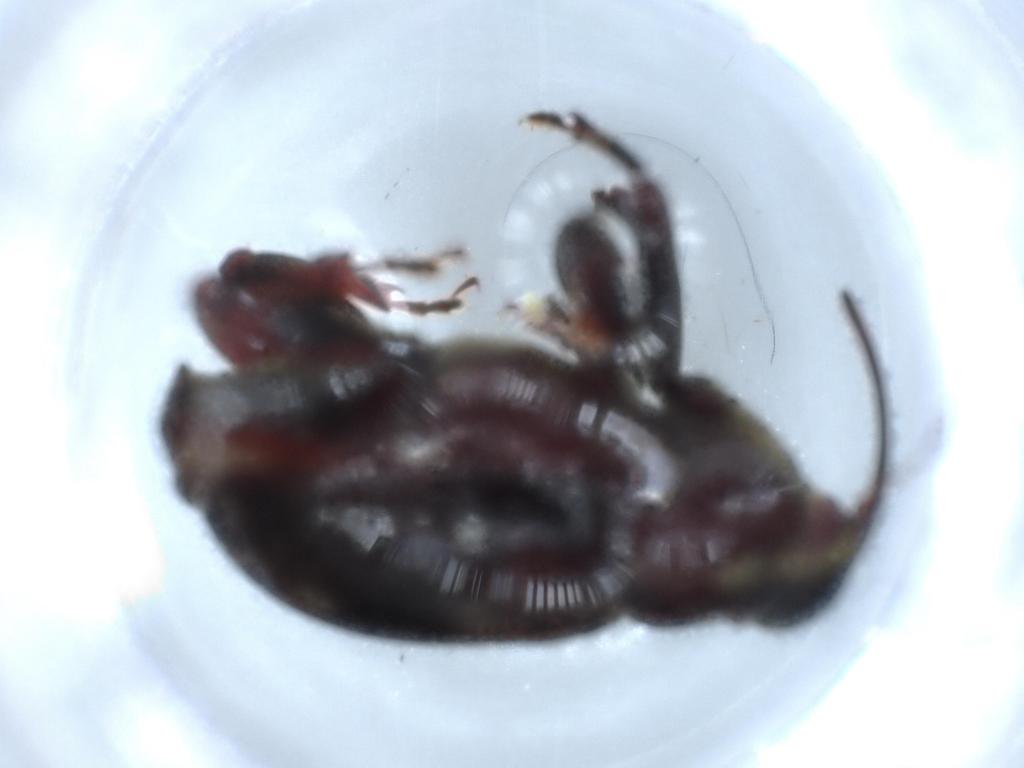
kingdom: Animalia
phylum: Arthropoda
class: Insecta
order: Coleoptera
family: Curculionidae
